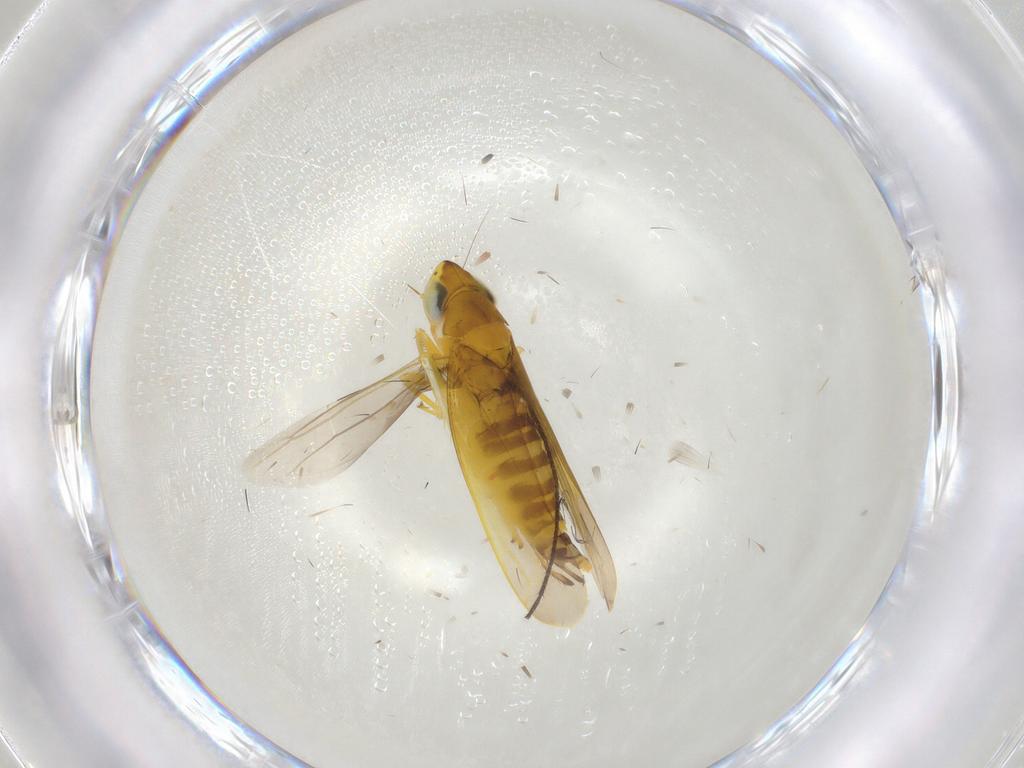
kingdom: Animalia
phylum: Arthropoda
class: Insecta
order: Hemiptera
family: Cicadellidae
